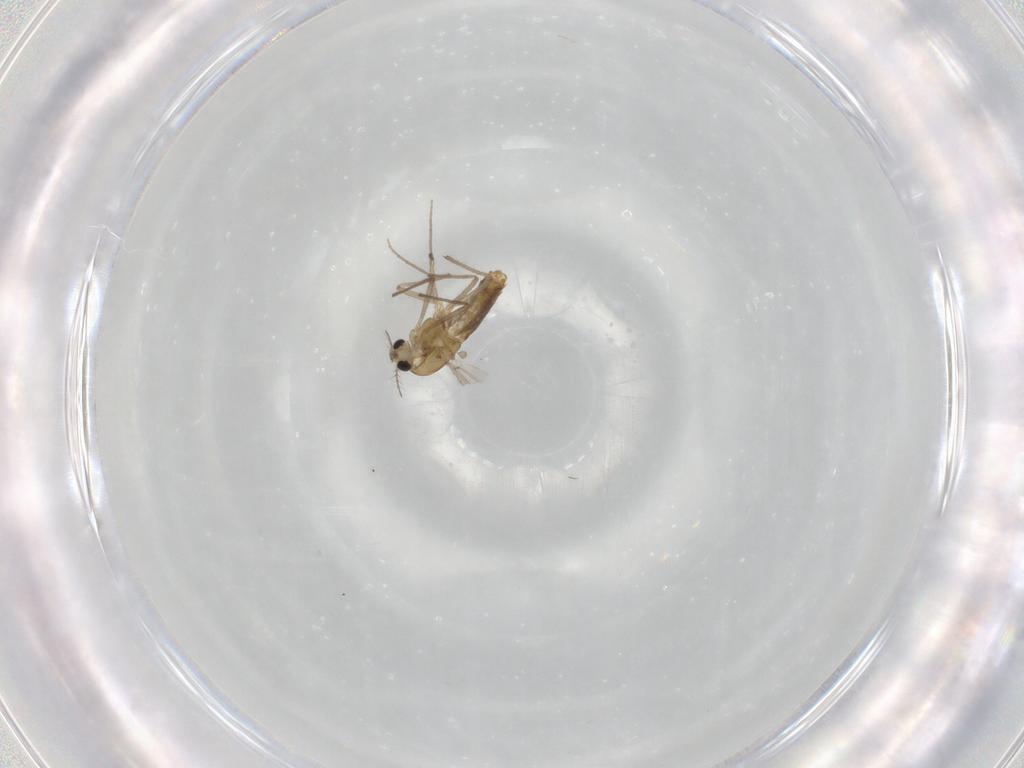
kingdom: Animalia
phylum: Arthropoda
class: Insecta
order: Diptera
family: Chironomidae
